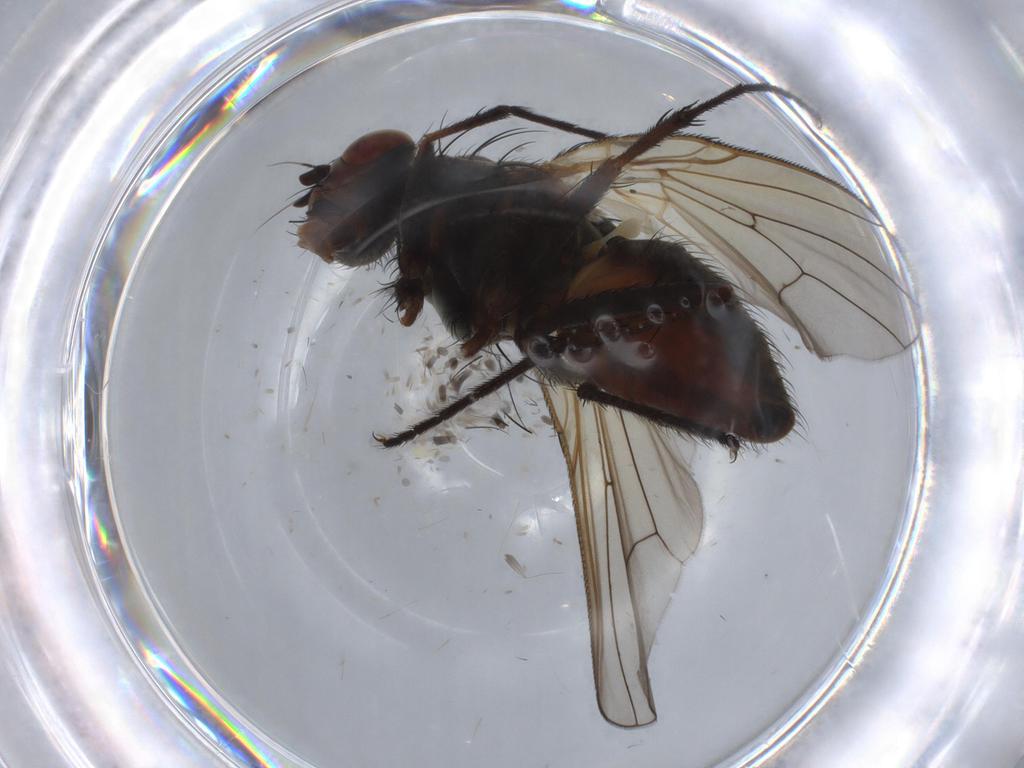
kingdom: Animalia
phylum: Arthropoda
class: Insecta
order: Diptera
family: Anthomyiidae
